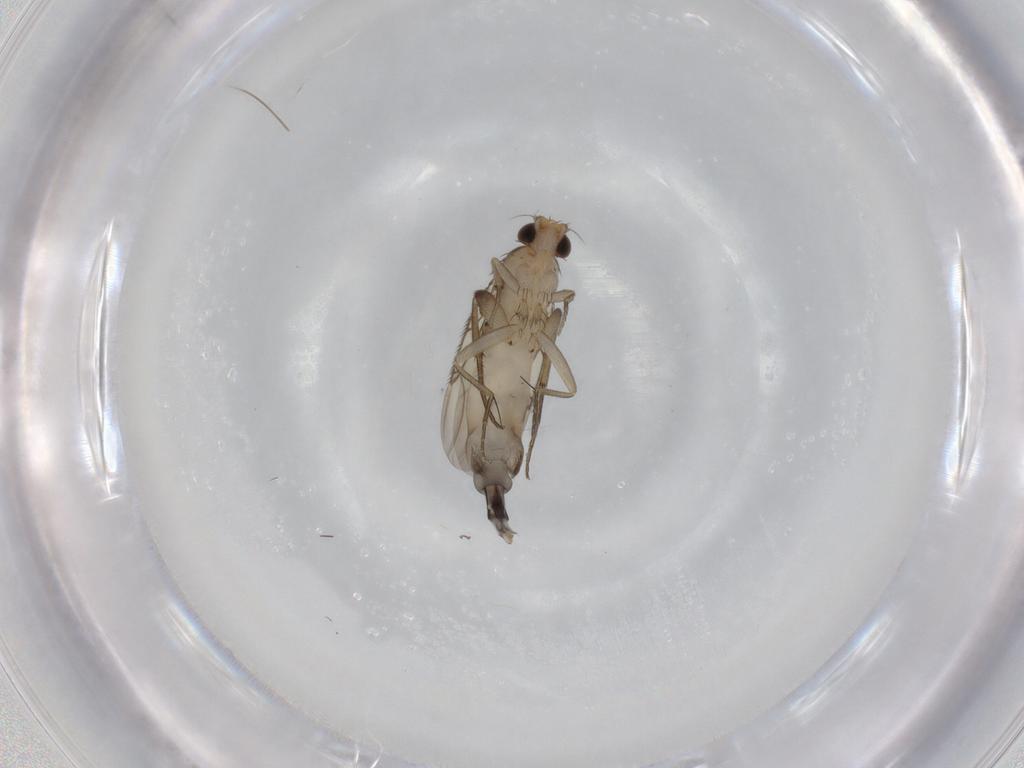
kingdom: Animalia
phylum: Arthropoda
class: Insecta
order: Diptera
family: Phoridae
